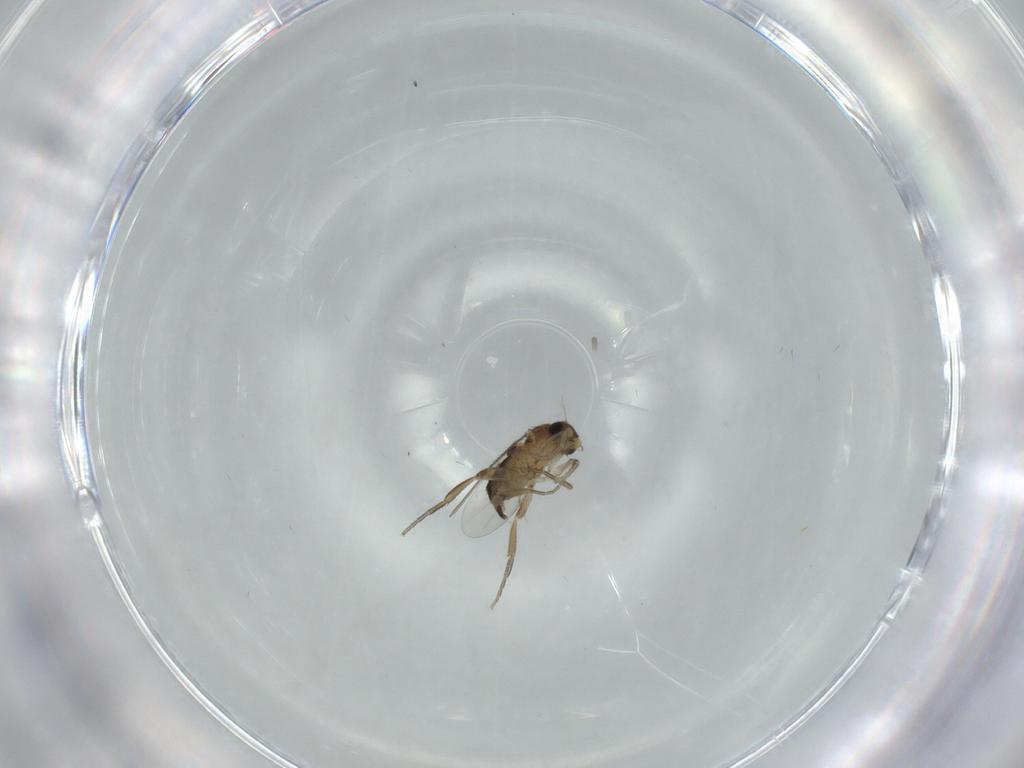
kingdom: Animalia
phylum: Arthropoda
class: Insecta
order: Diptera
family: Phoridae
